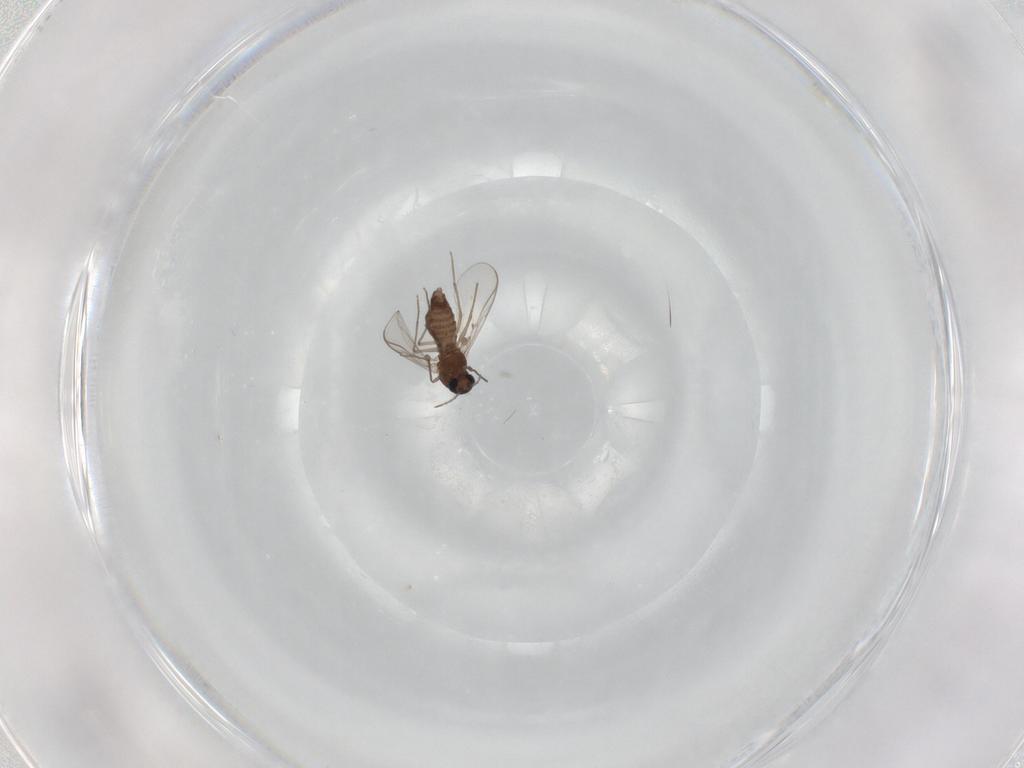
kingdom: Animalia
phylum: Arthropoda
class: Insecta
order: Diptera
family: Chironomidae
